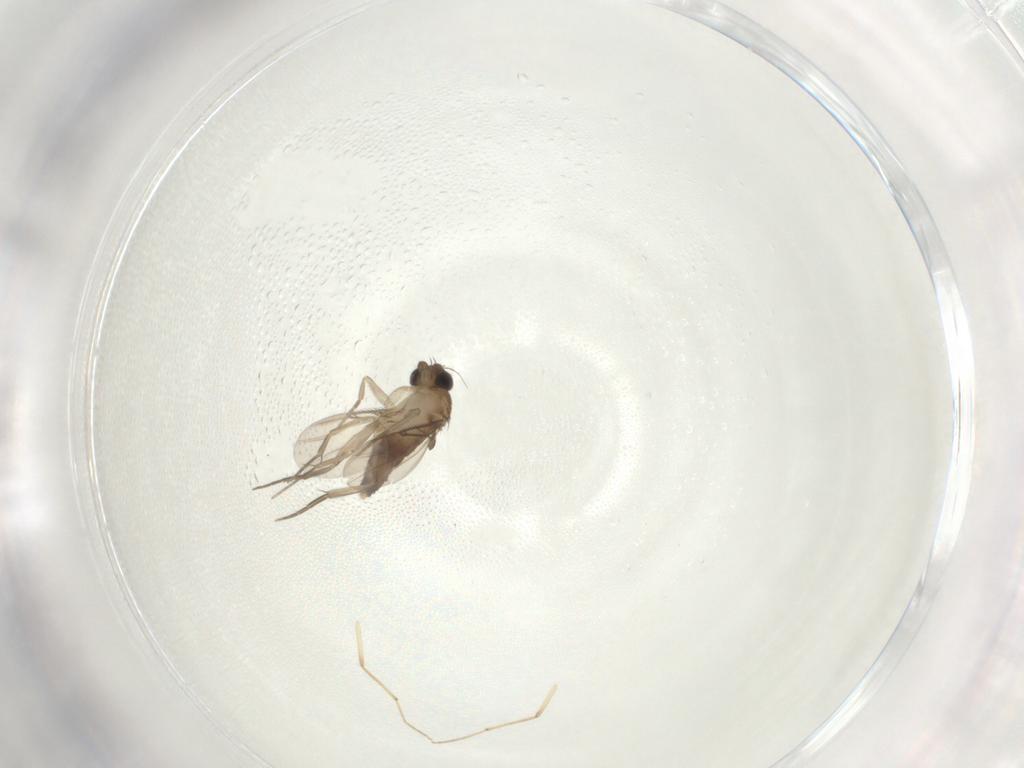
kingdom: Animalia
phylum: Arthropoda
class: Insecta
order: Diptera
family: Phoridae
